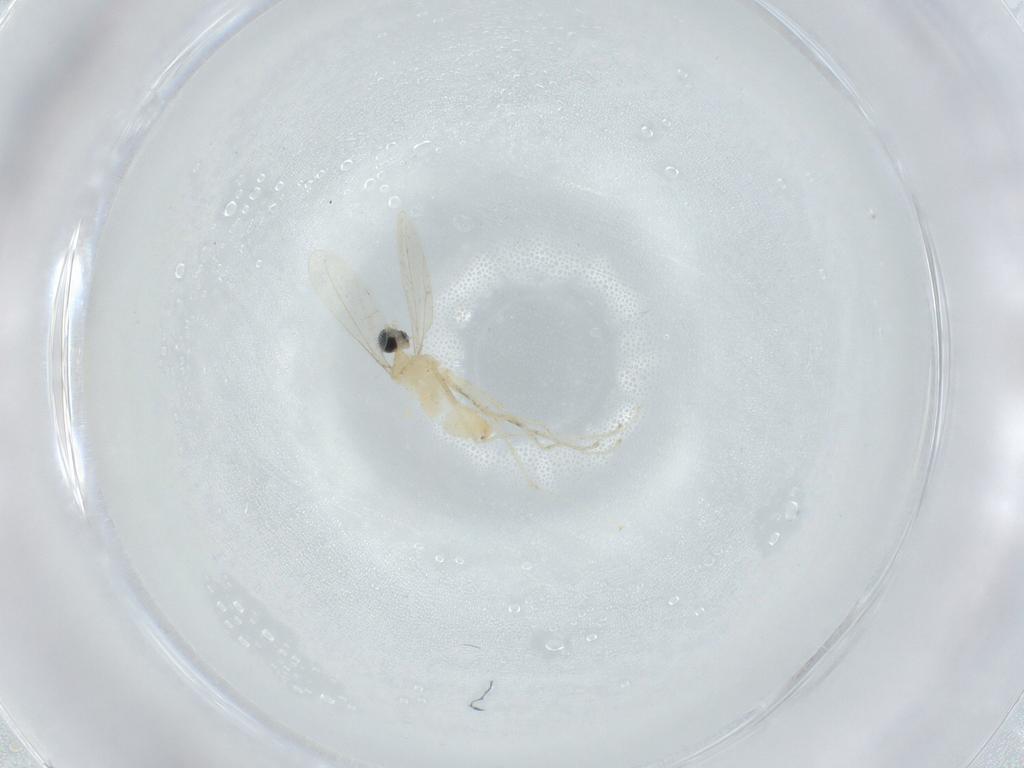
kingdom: Animalia
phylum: Arthropoda
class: Insecta
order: Diptera
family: Cecidomyiidae
